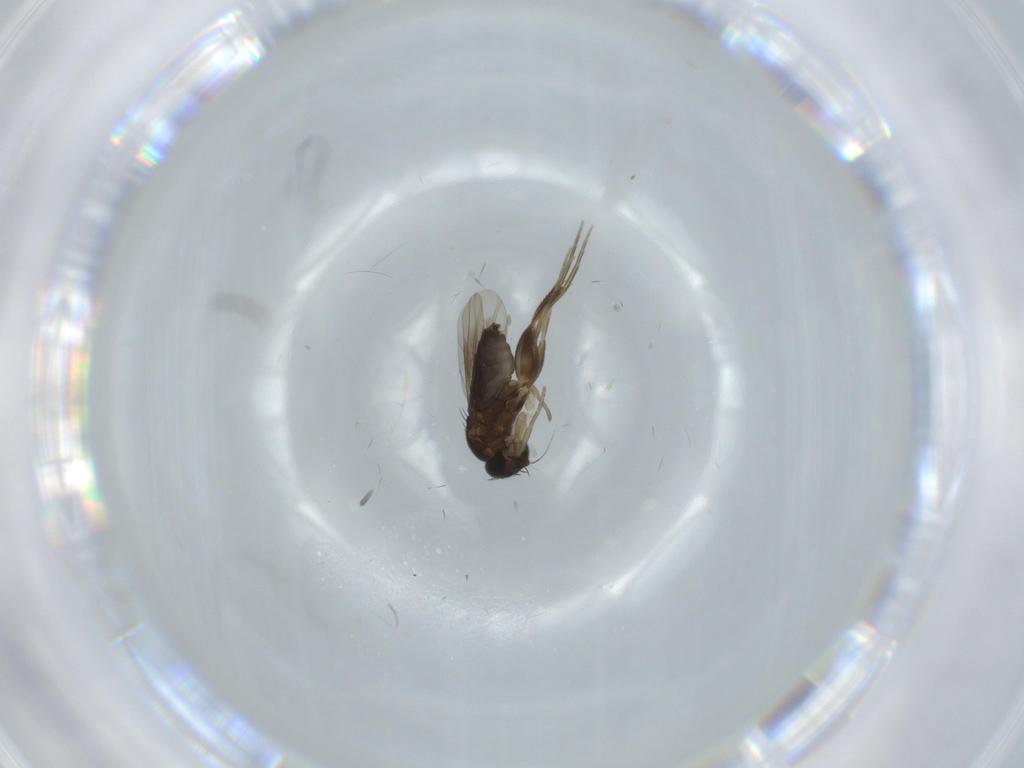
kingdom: Animalia
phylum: Arthropoda
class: Insecta
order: Diptera
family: Phoridae
